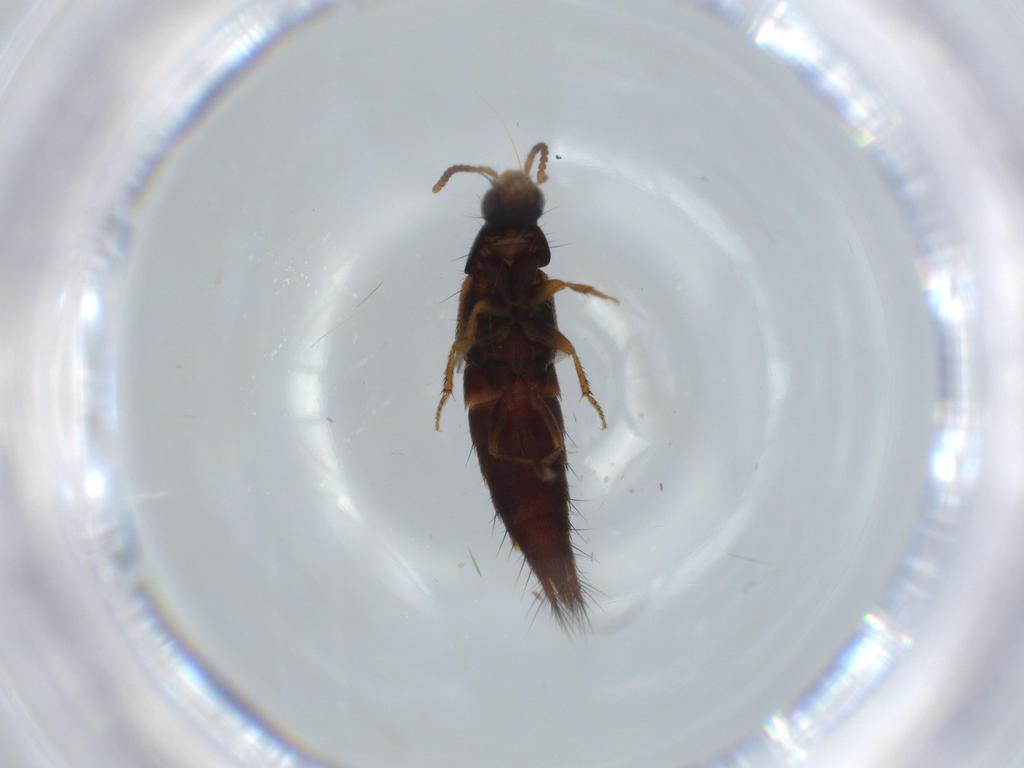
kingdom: Animalia
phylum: Arthropoda
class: Insecta
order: Coleoptera
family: Staphylinidae
